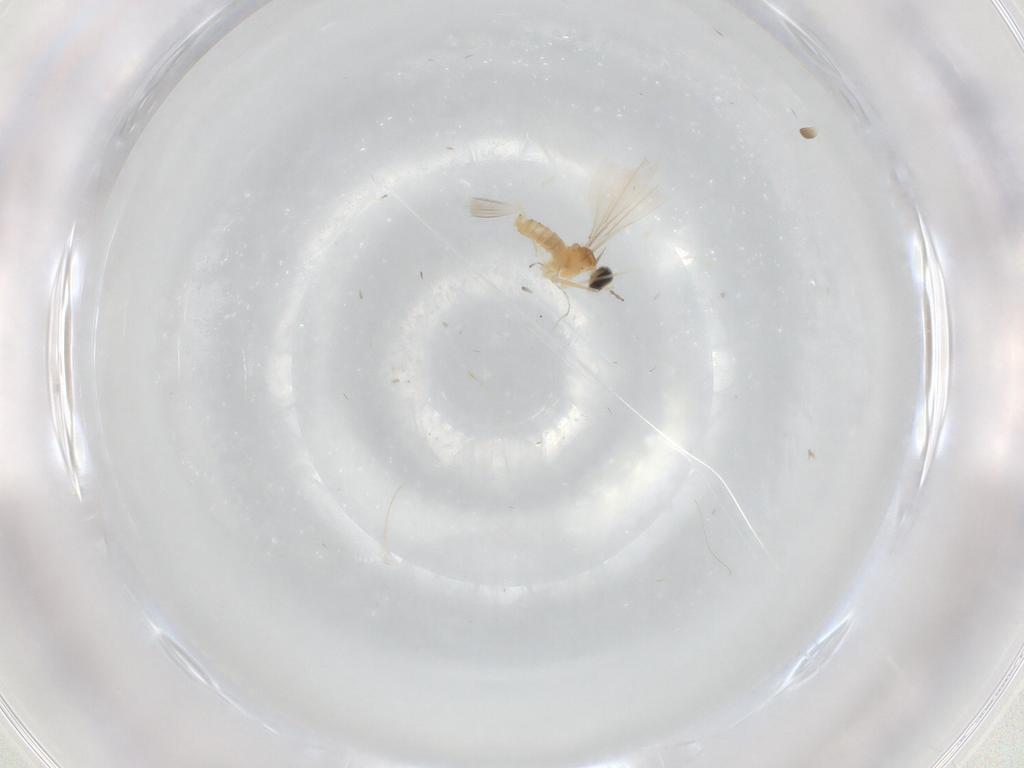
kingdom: Animalia
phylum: Arthropoda
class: Insecta
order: Diptera
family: Cecidomyiidae
